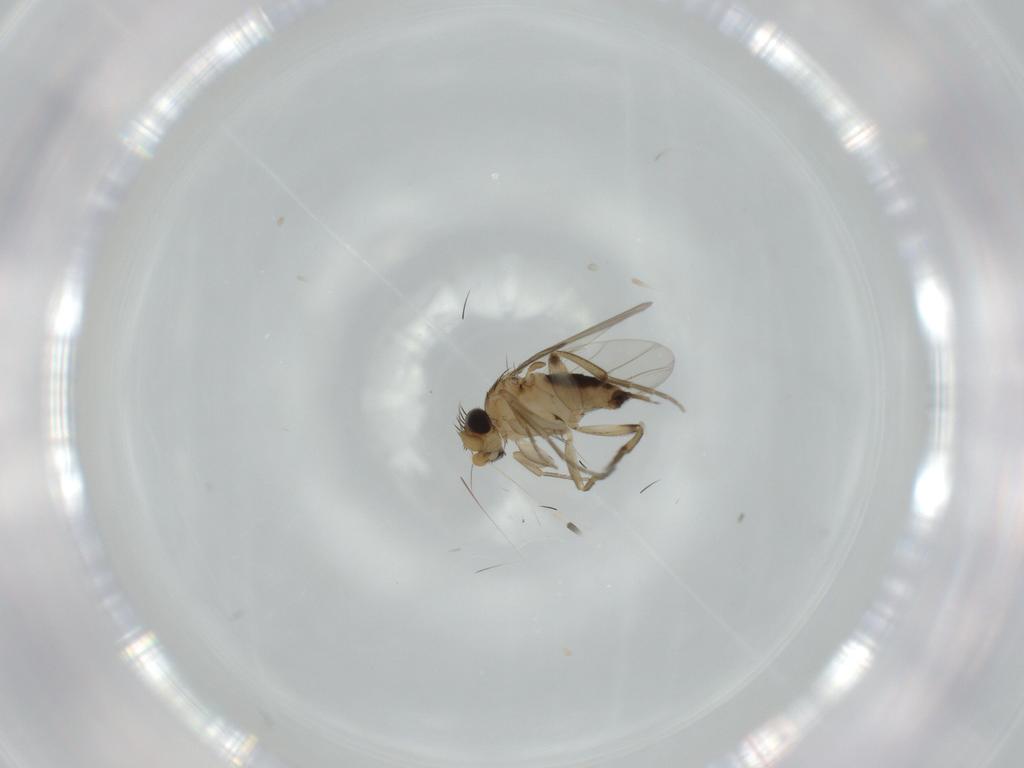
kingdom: Animalia
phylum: Arthropoda
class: Insecta
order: Diptera
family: Phoridae
